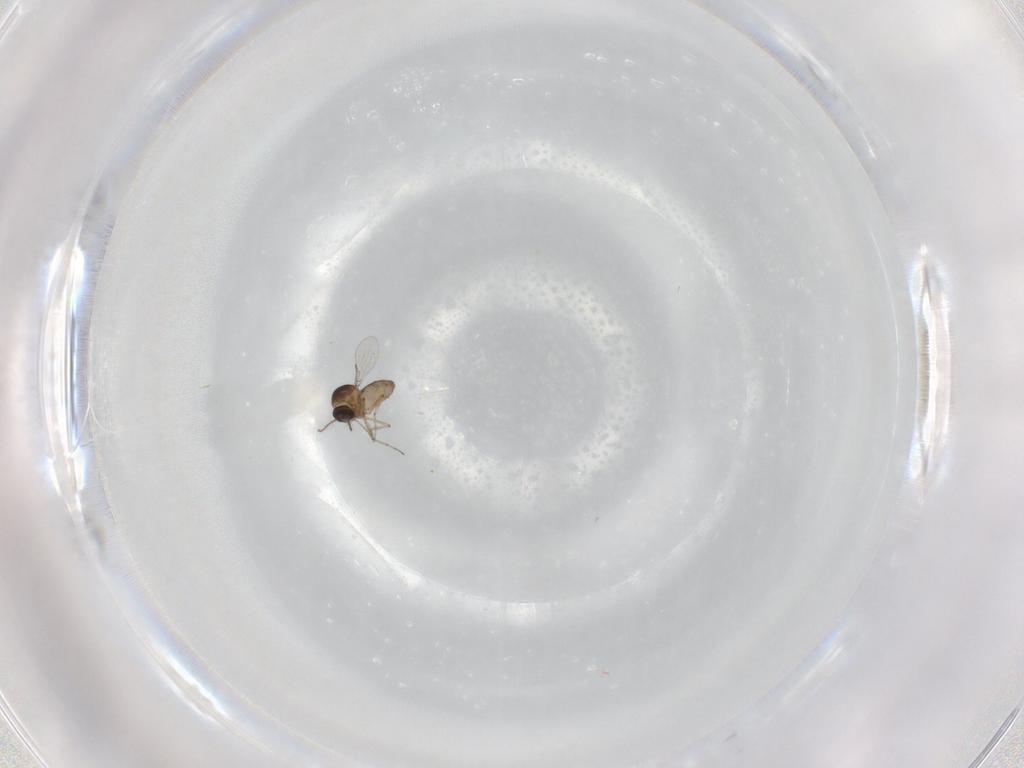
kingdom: Animalia
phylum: Arthropoda
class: Insecta
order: Diptera
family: Ceratopogonidae
